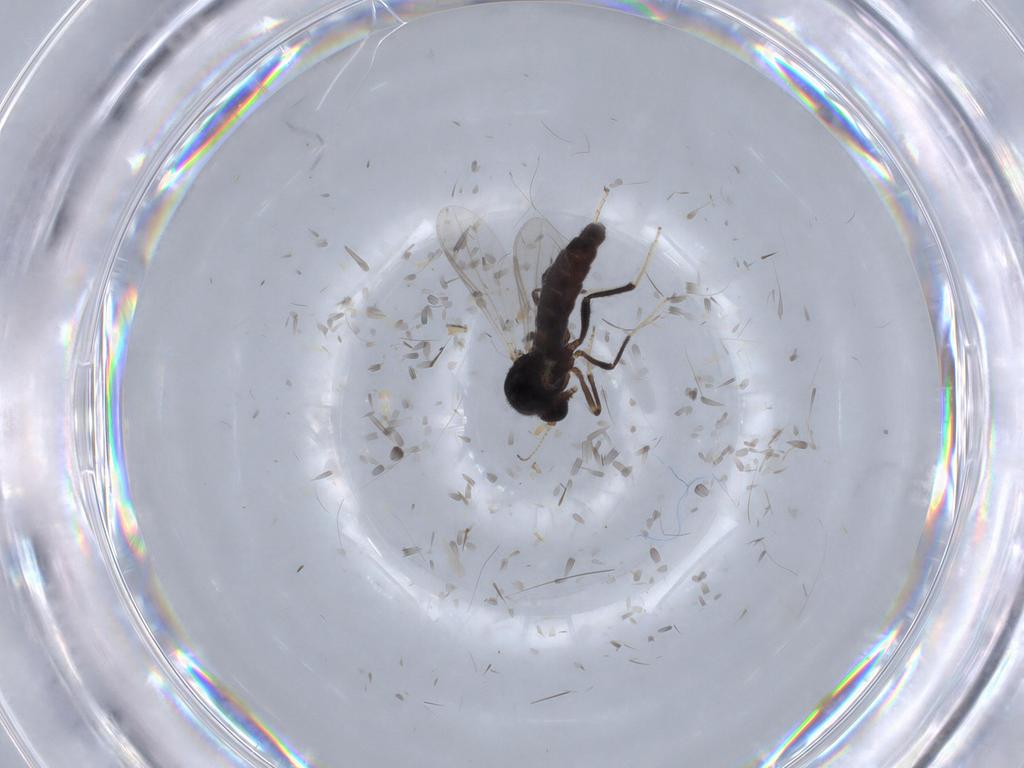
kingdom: Animalia
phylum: Arthropoda
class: Insecta
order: Diptera
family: Ceratopogonidae
